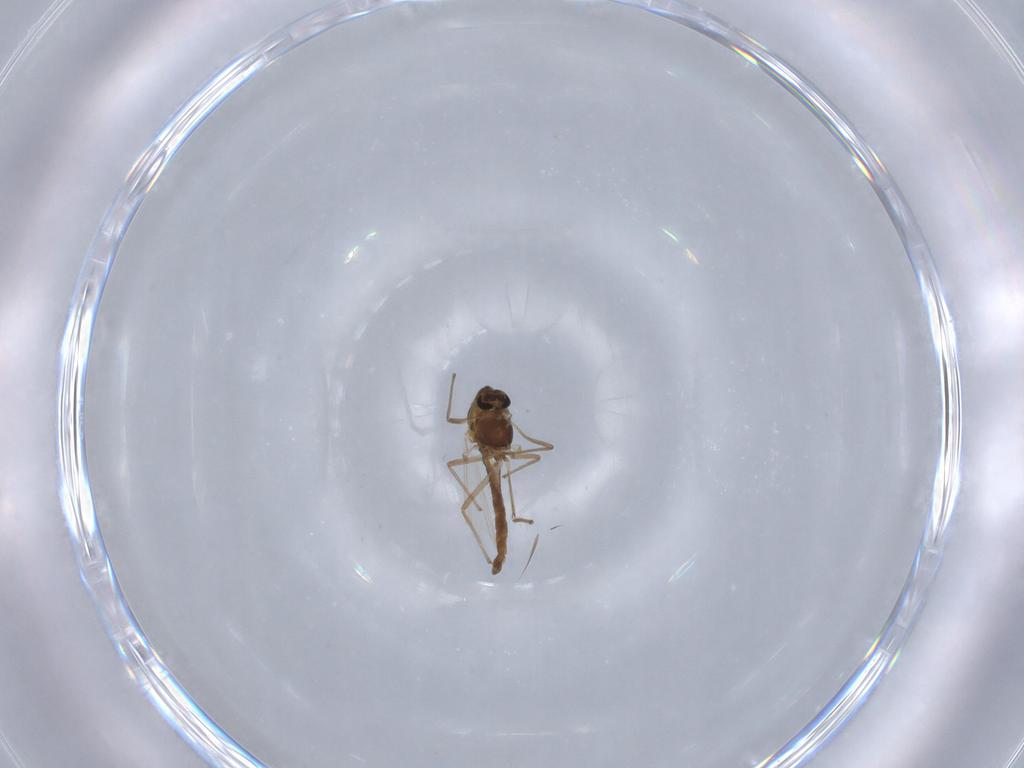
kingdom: Animalia
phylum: Arthropoda
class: Insecta
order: Diptera
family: Chironomidae
